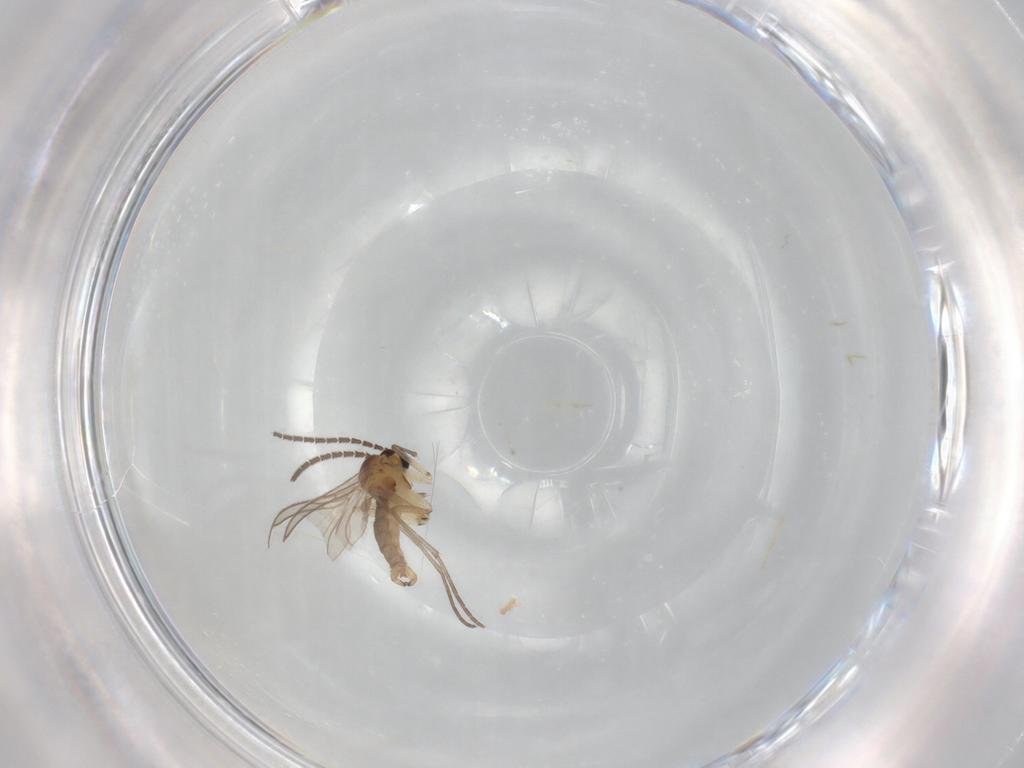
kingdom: Animalia
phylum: Arthropoda
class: Insecta
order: Diptera
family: Sciaridae
